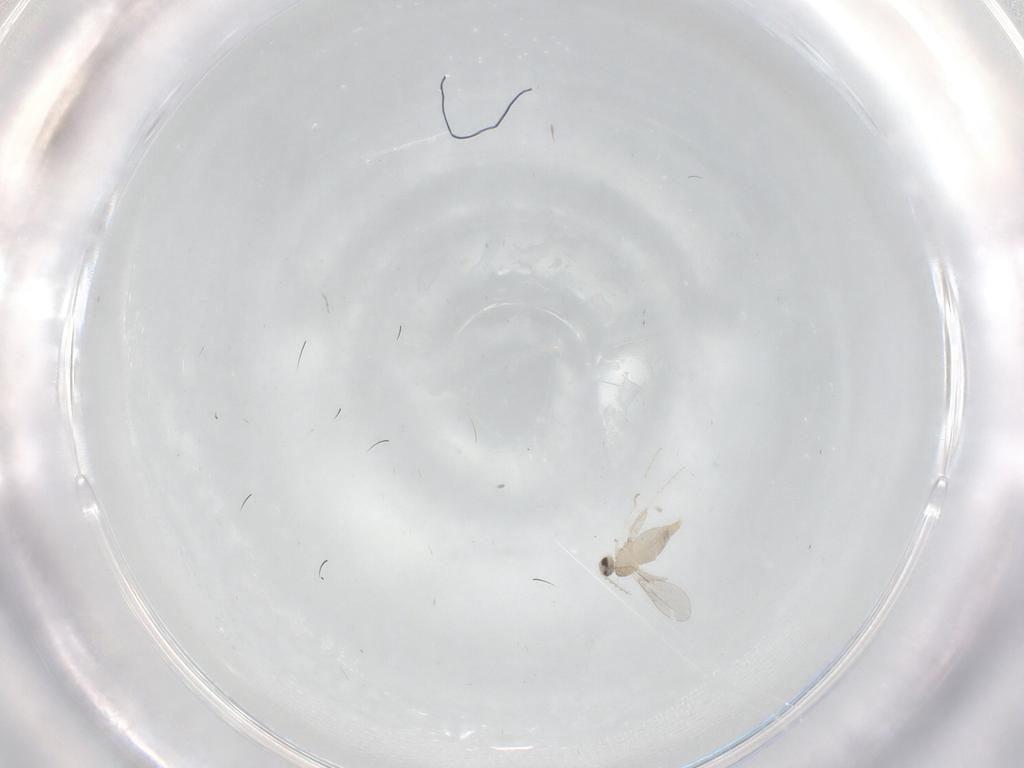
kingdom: Animalia
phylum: Arthropoda
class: Insecta
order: Diptera
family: Cecidomyiidae
